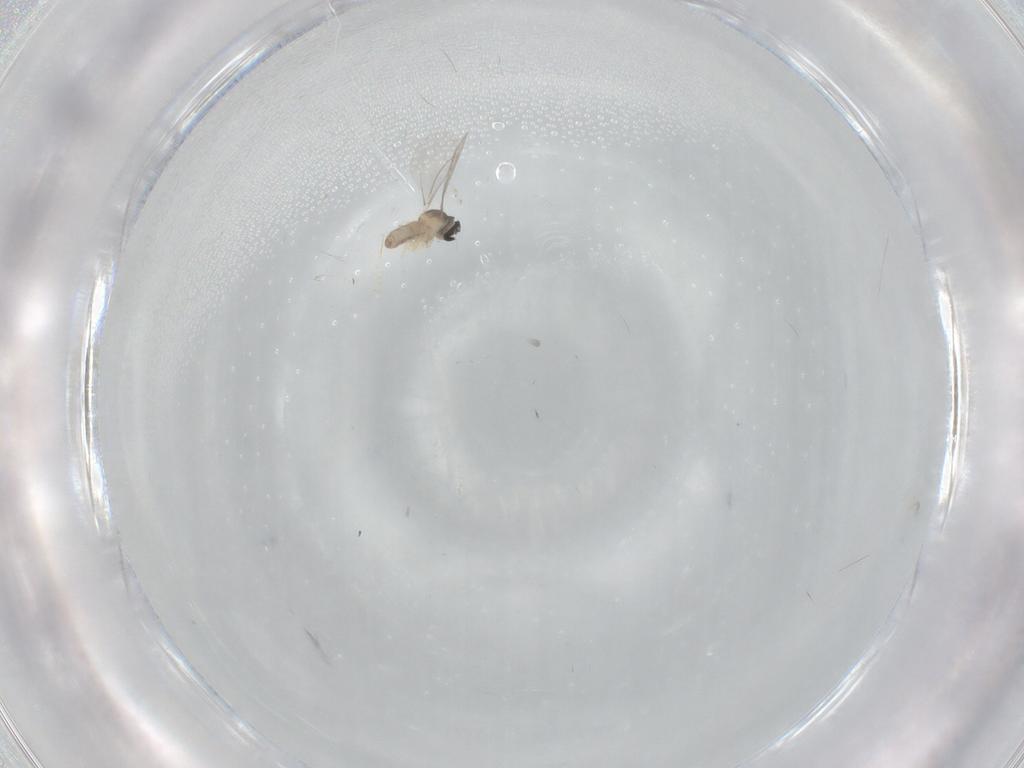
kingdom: Animalia
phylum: Arthropoda
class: Insecta
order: Diptera
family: Cecidomyiidae
